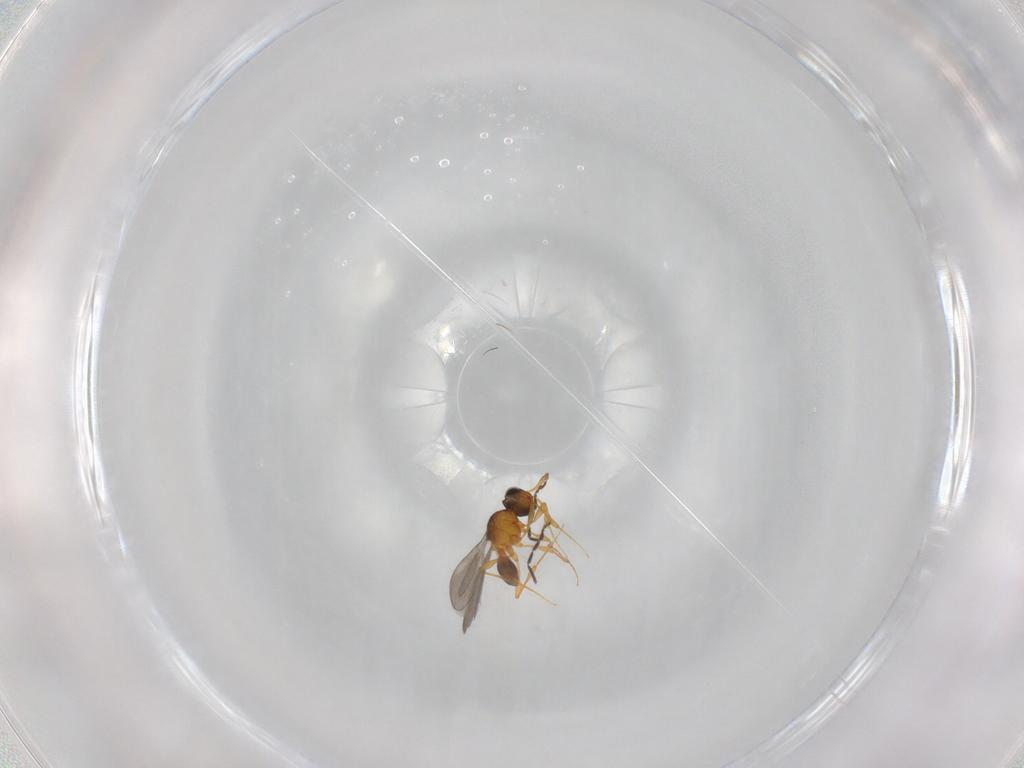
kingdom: Animalia
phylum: Arthropoda
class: Insecta
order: Hymenoptera
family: Platygastridae
